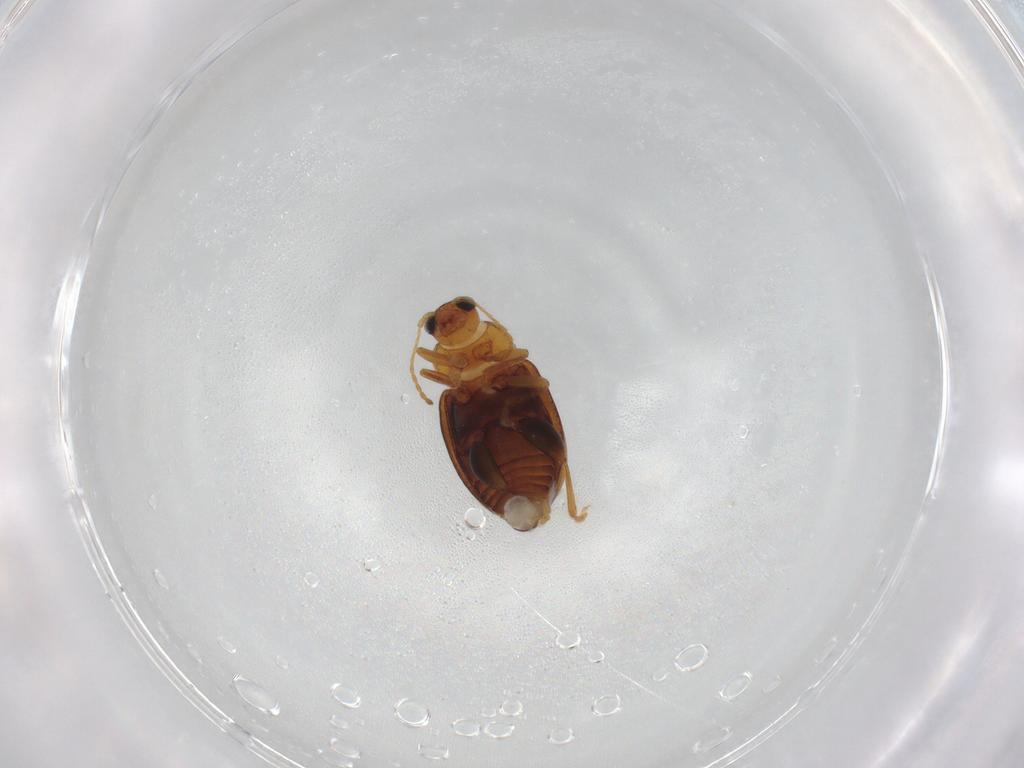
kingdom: Animalia
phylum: Arthropoda
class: Insecta
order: Coleoptera
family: Chrysomelidae
